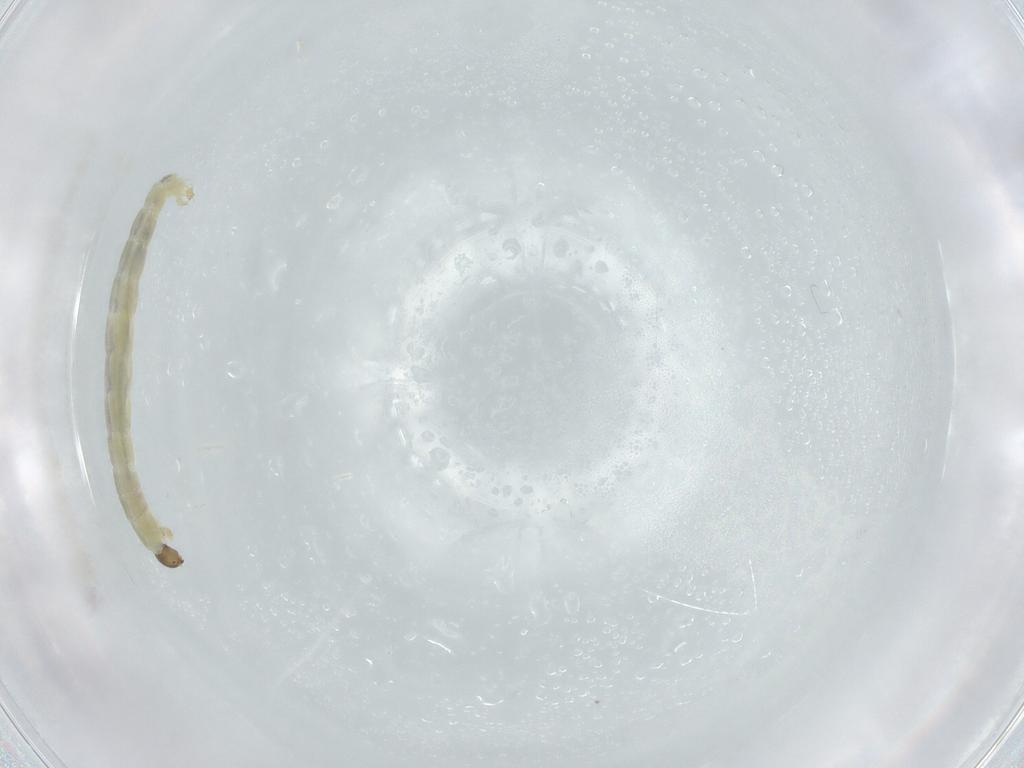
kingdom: Animalia
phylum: Arthropoda
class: Insecta
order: Diptera
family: Chironomidae
